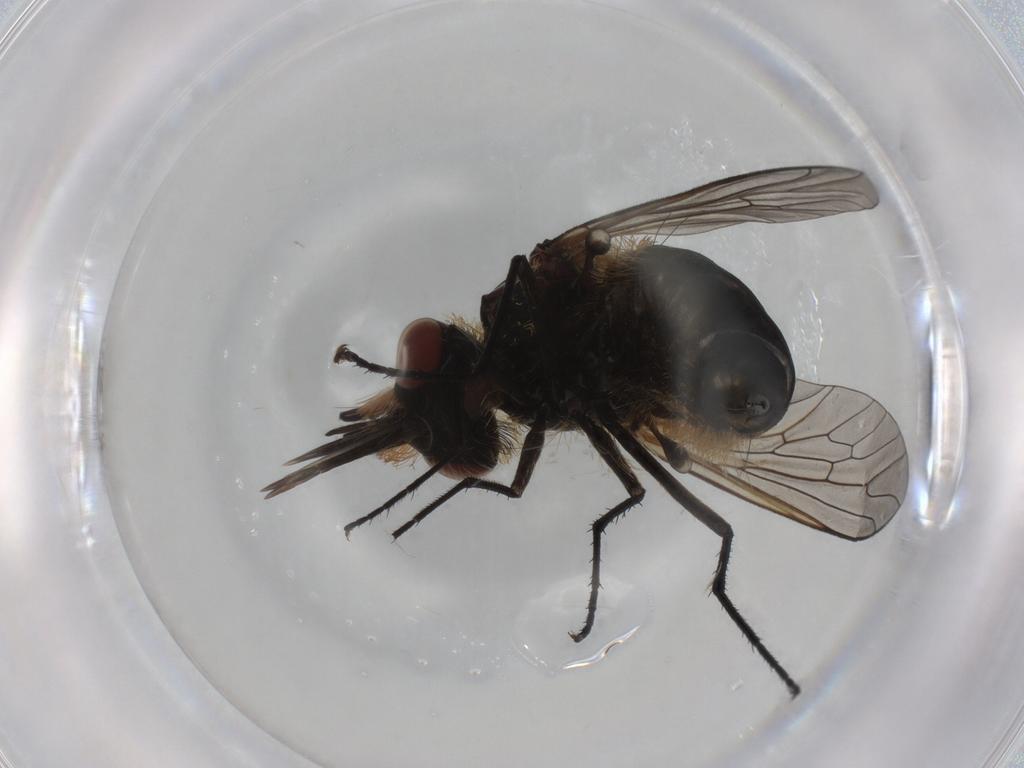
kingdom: Animalia
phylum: Arthropoda
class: Insecta
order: Diptera
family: Bombyliidae
